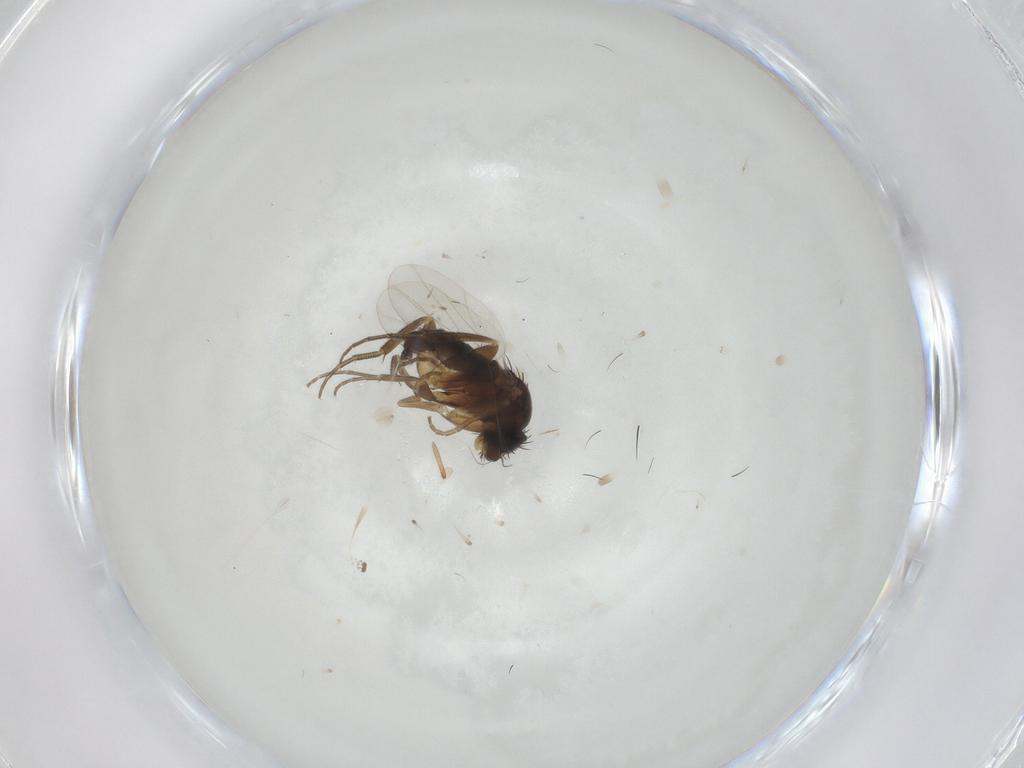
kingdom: Animalia
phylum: Arthropoda
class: Insecta
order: Diptera
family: Phoridae
